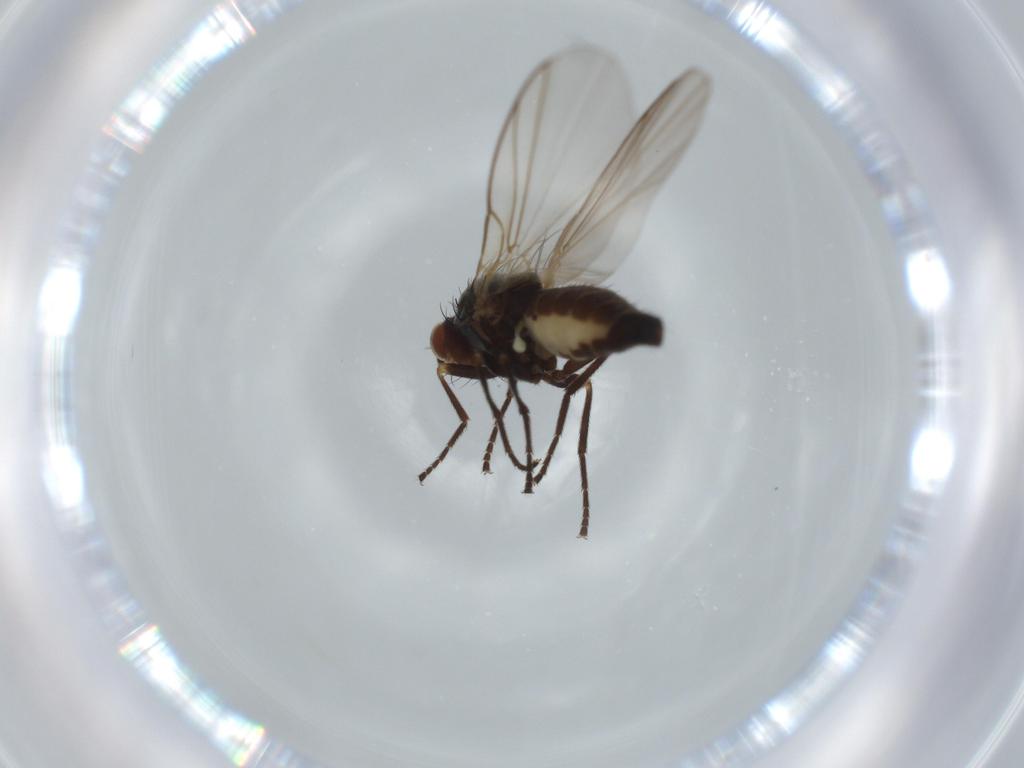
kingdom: Animalia
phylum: Arthropoda
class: Insecta
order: Diptera
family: Agromyzidae
